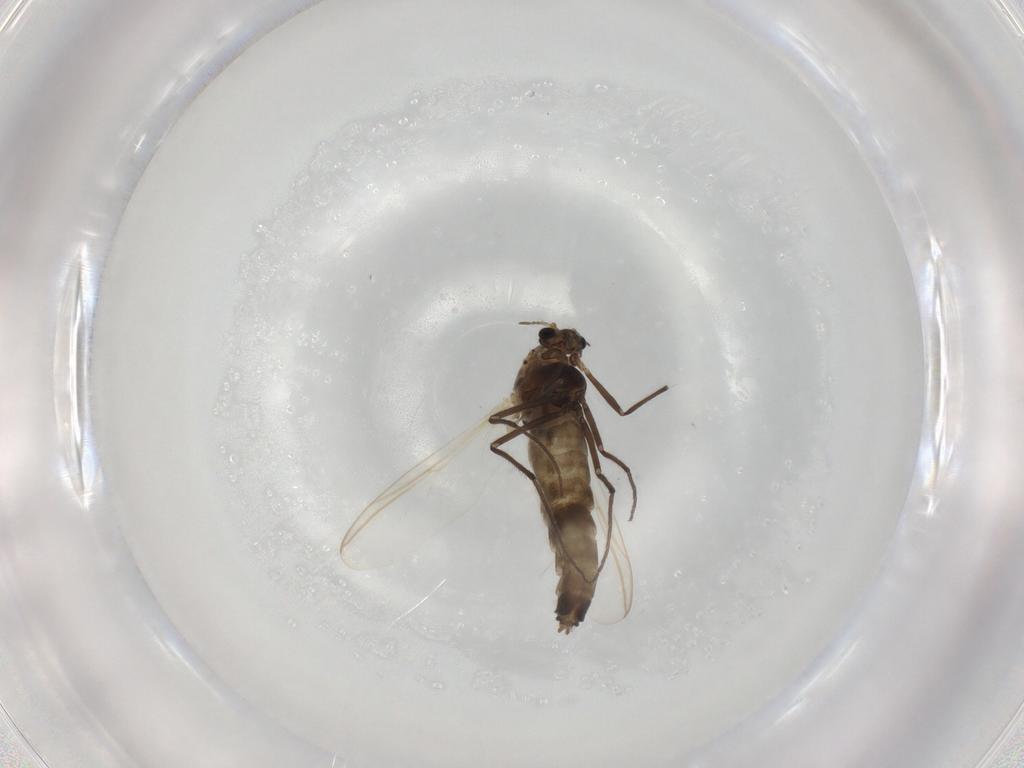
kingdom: Animalia
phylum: Arthropoda
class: Insecta
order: Diptera
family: Chironomidae
